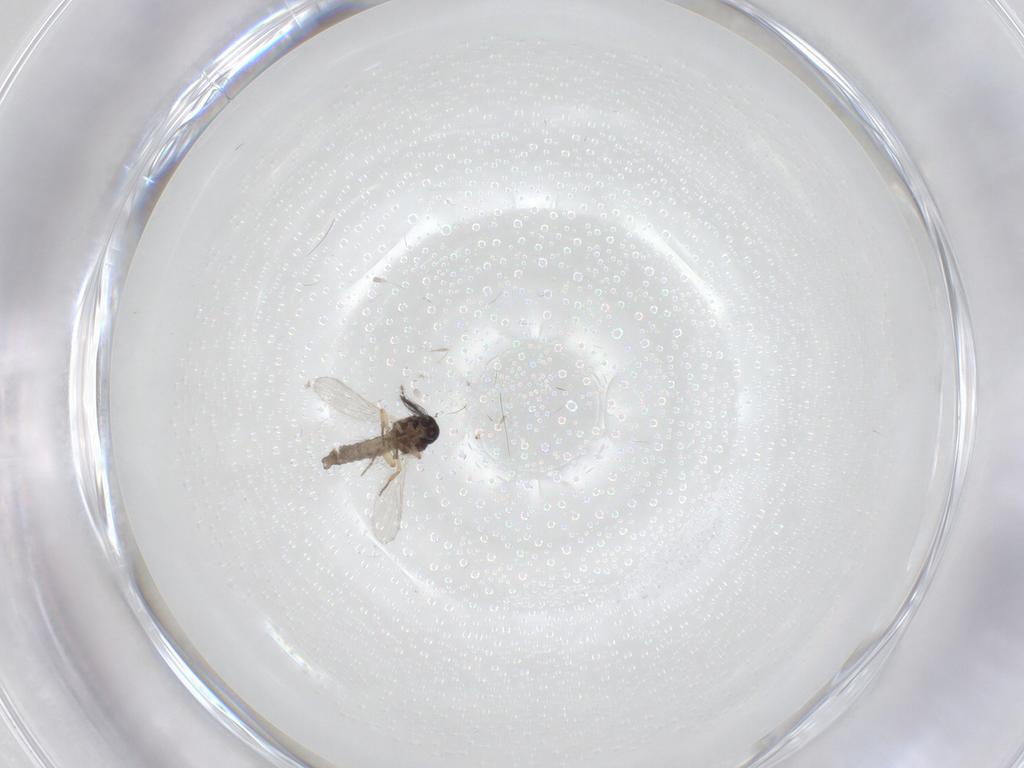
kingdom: Animalia
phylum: Arthropoda
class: Insecta
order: Diptera
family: Ceratopogonidae
